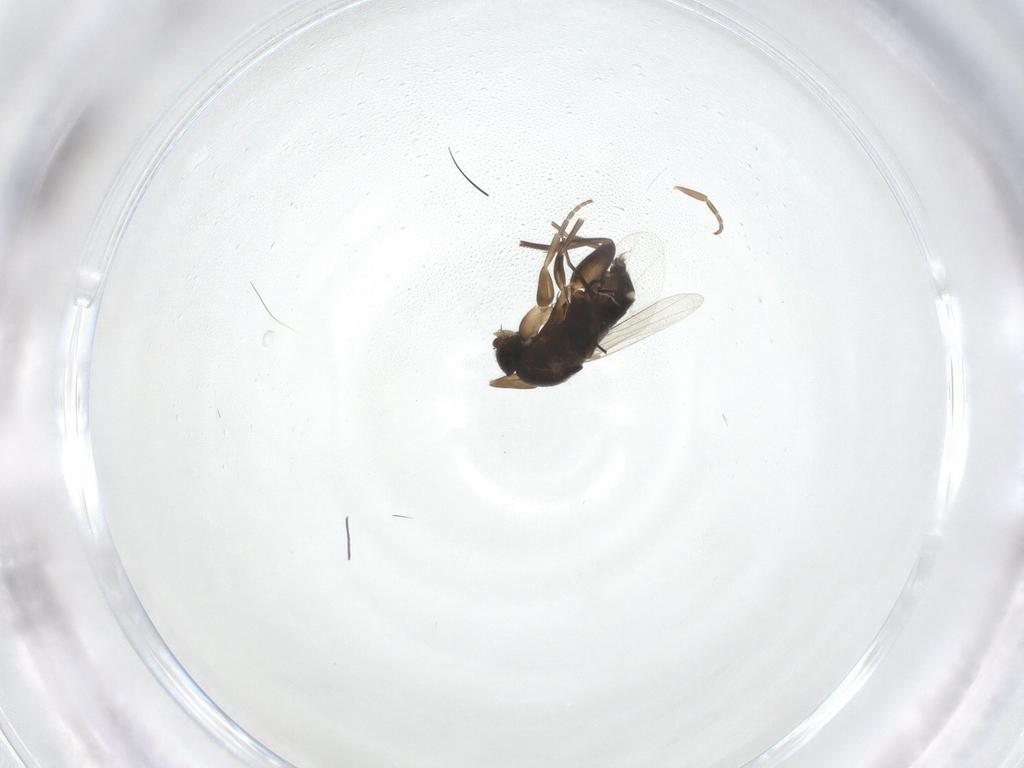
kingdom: Animalia
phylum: Arthropoda
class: Insecta
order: Diptera
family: Phoridae
